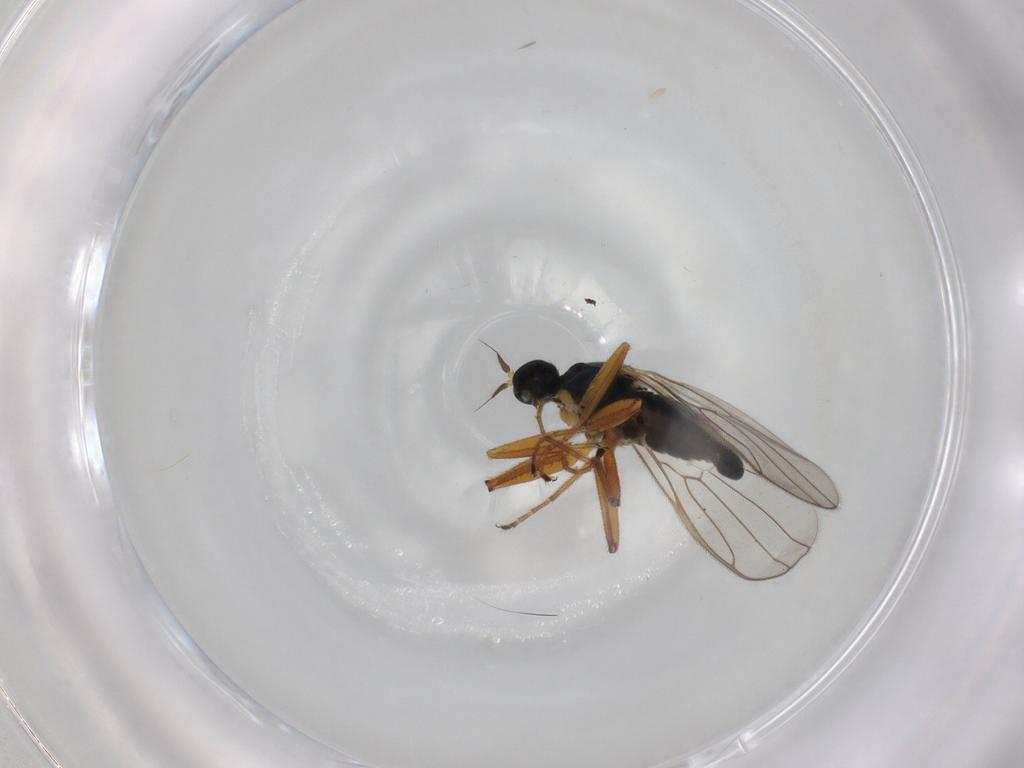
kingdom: Animalia
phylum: Arthropoda
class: Insecta
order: Diptera
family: Hybotidae
